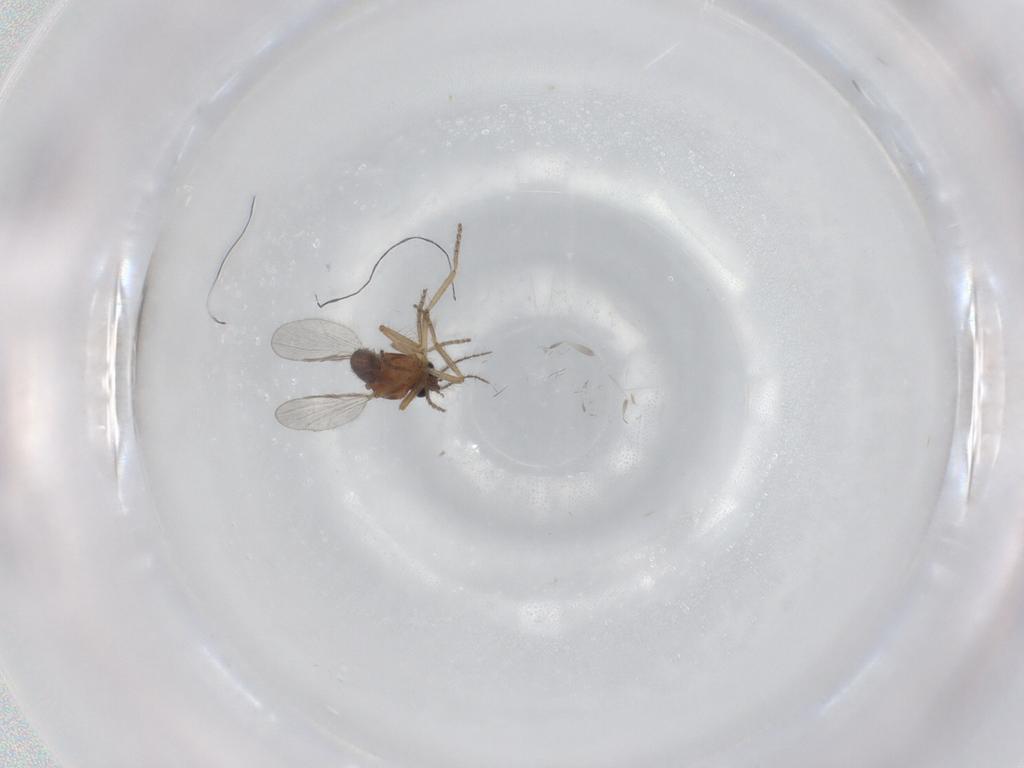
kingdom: Animalia
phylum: Arthropoda
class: Insecta
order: Diptera
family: Ceratopogonidae
